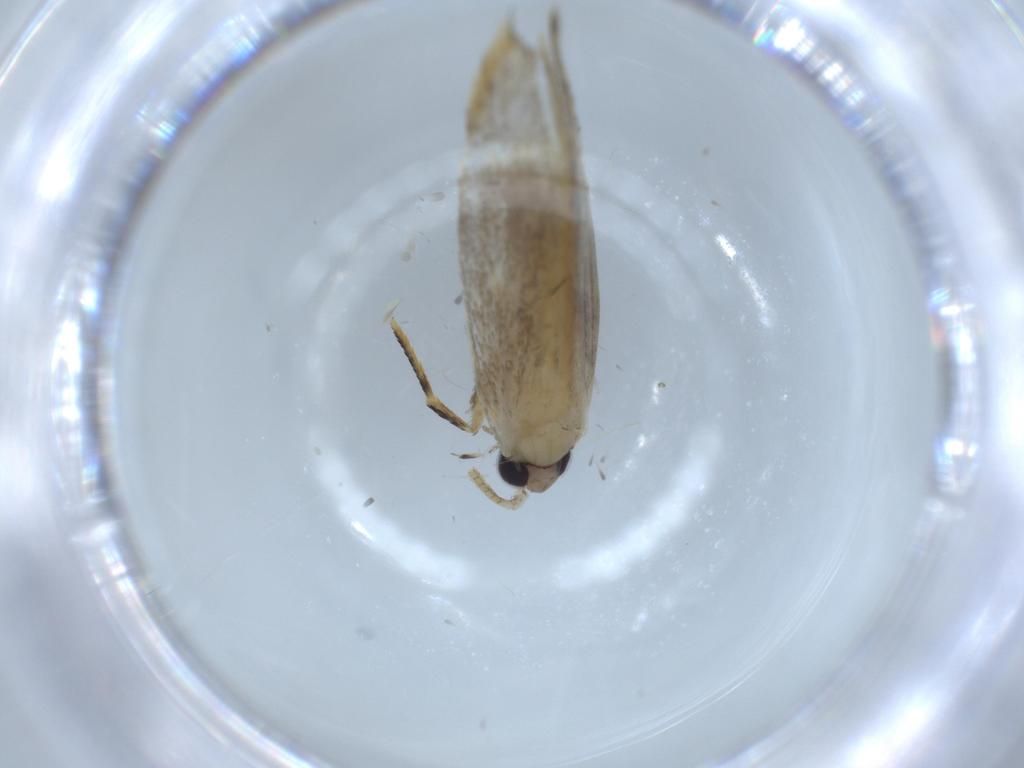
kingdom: Animalia
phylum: Arthropoda
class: Insecta
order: Lepidoptera
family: Tineidae
